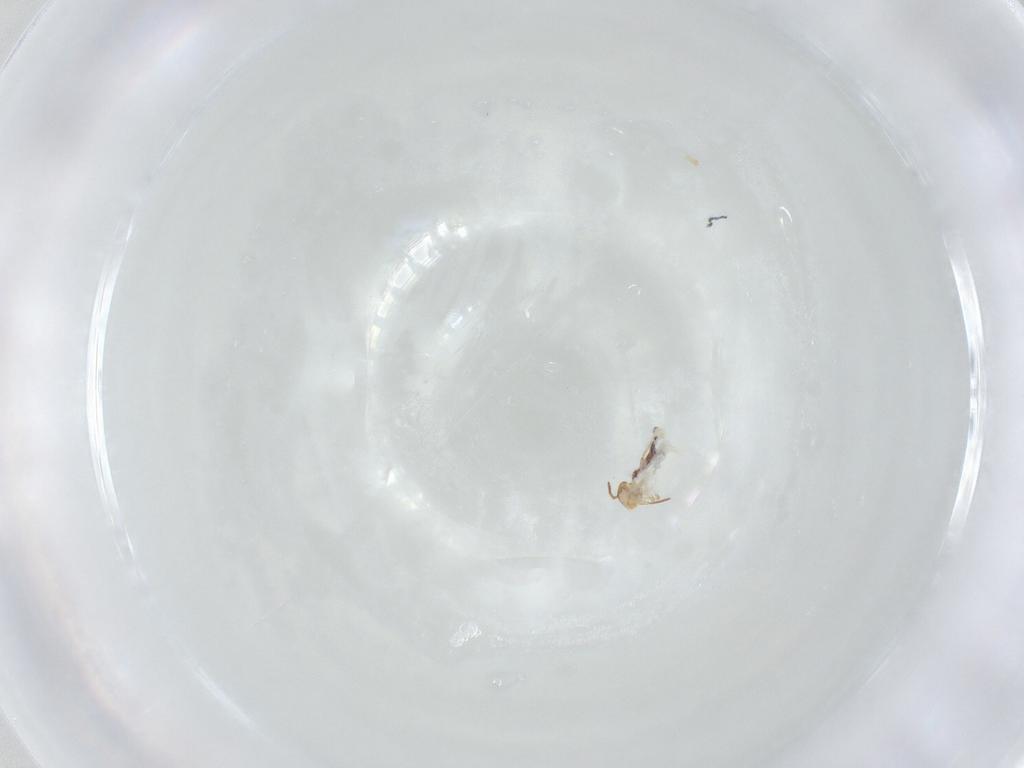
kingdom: Animalia
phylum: Arthropoda
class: Collembola
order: Symphypleona
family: Bourletiellidae
